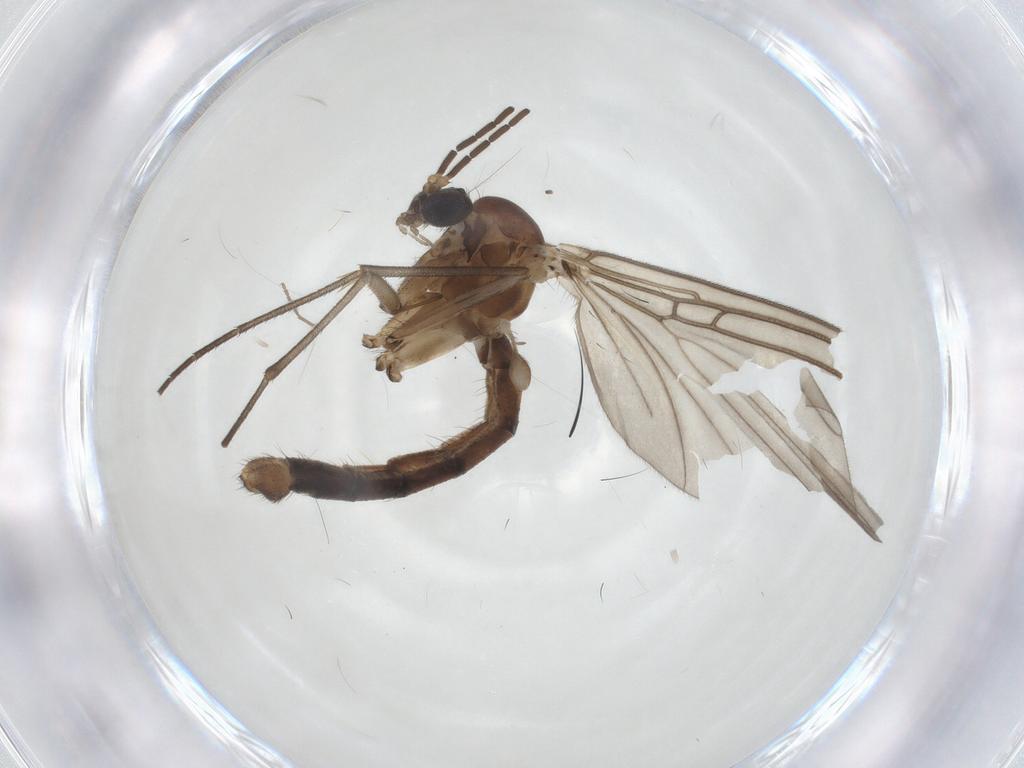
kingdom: Animalia
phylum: Arthropoda
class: Insecta
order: Diptera
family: Mycetophilidae
